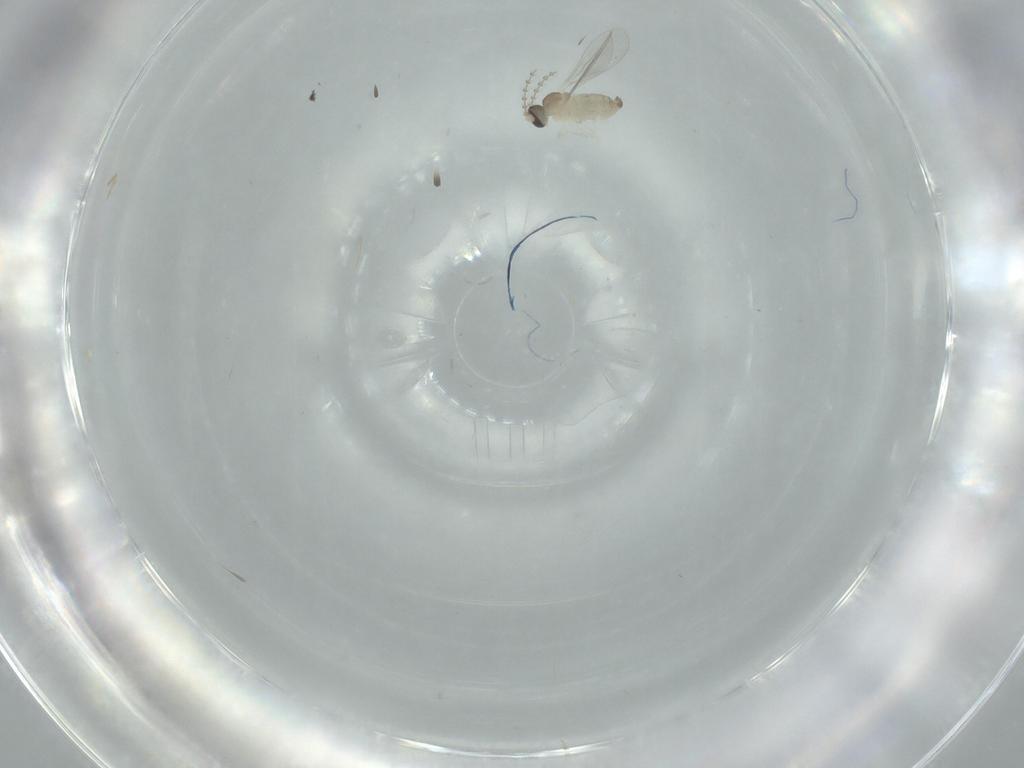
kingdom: Animalia
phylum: Arthropoda
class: Insecta
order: Diptera
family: Cecidomyiidae
